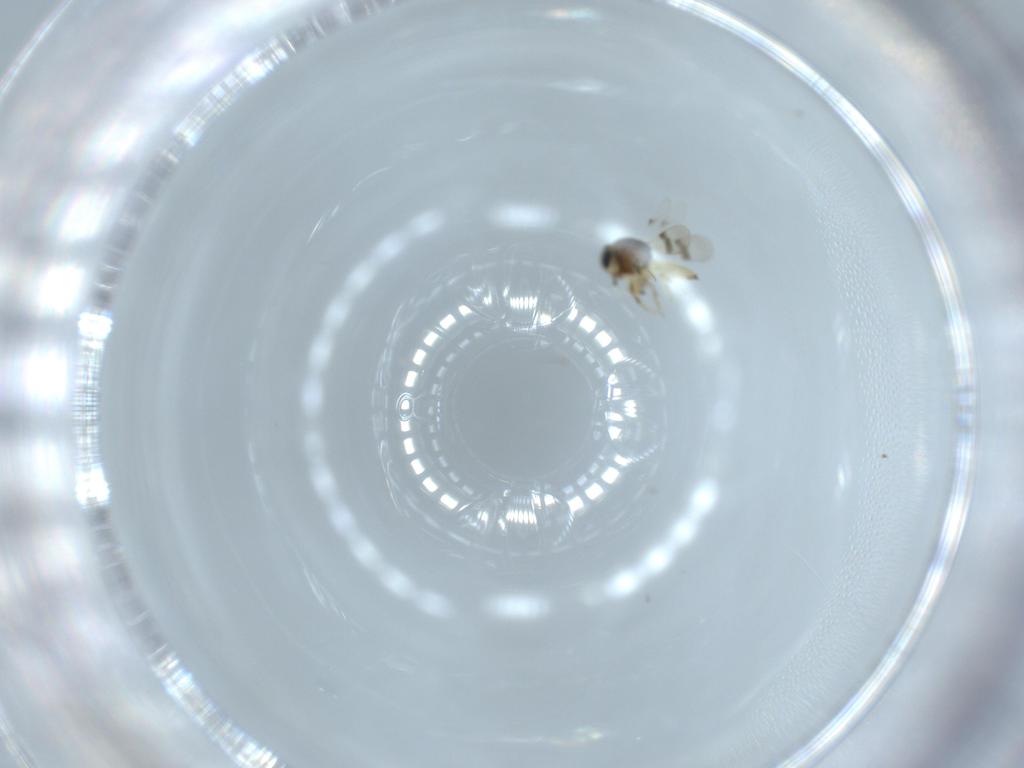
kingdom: Animalia
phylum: Arthropoda
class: Insecta
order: Hymenoptera
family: Scelionidae
